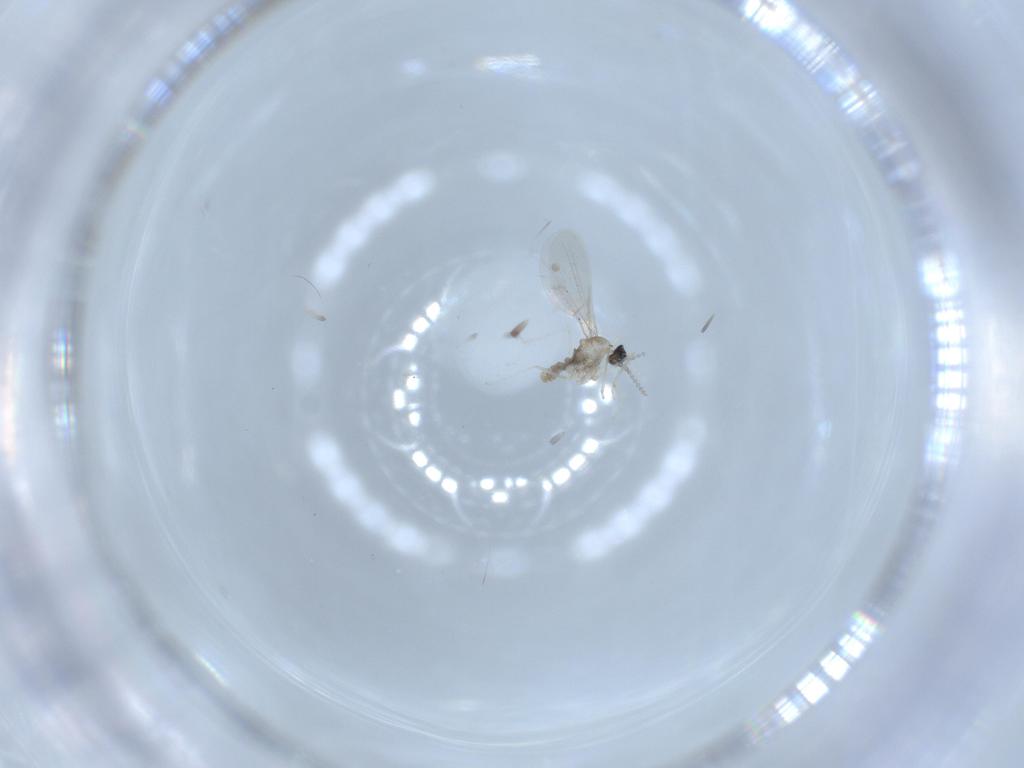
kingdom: Animalia
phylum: Arthropoda
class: Insecta
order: Diptera
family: Cecidomyiidae
